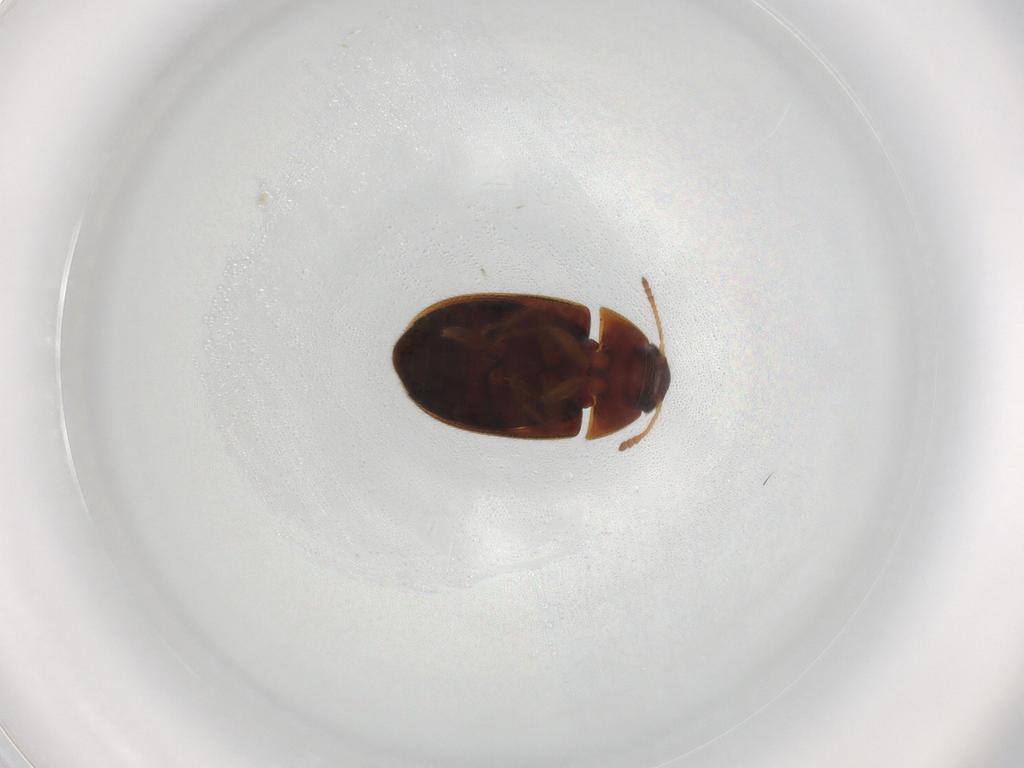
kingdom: Animalia
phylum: Arthropoda
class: Insecta
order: Coleoptera
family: Mycetophagidae
